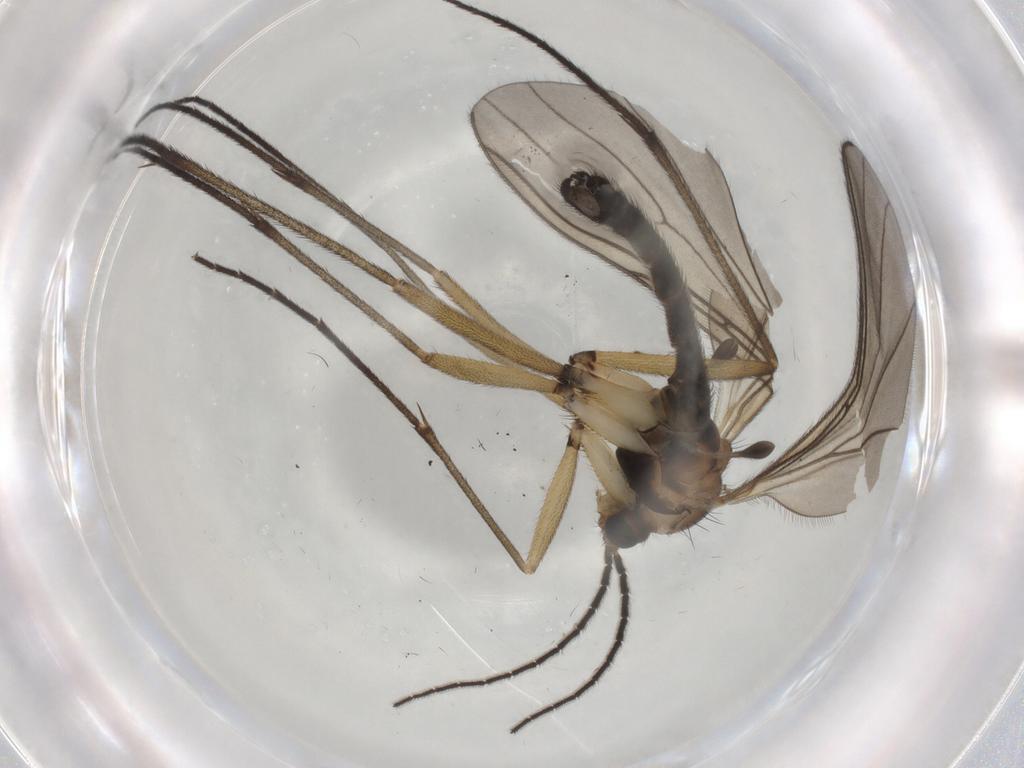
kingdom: Animalia
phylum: Arthropoda
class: Insecta
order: Diptera
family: Sciaridae
